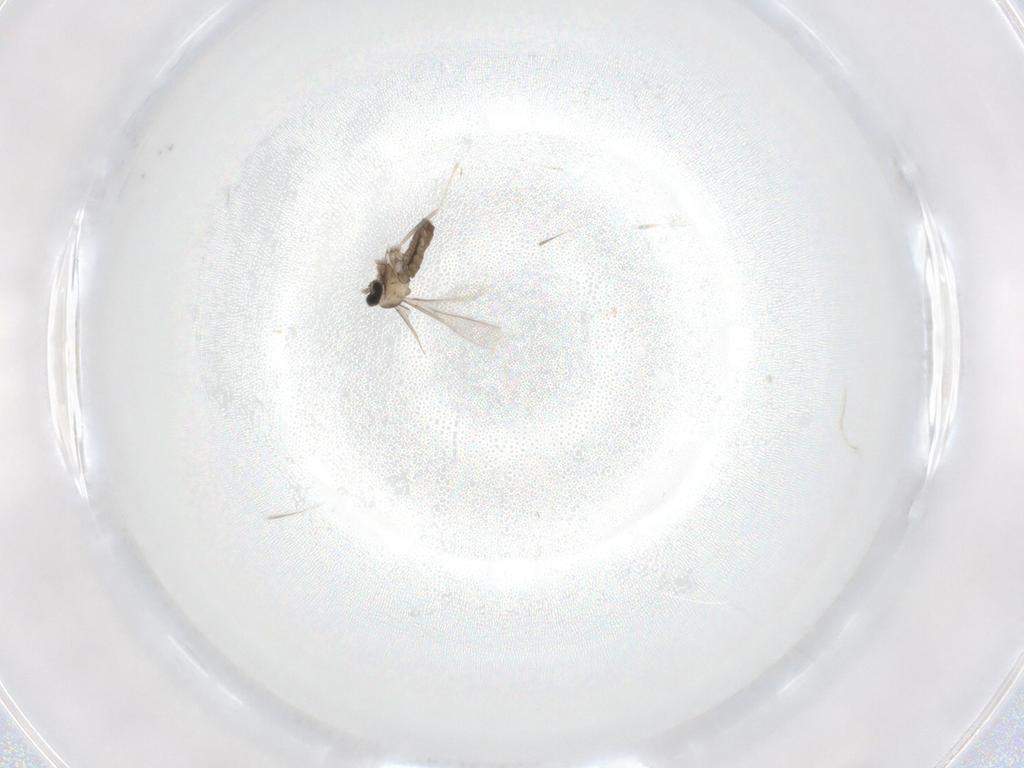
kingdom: Animalia
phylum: Arthropoda
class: Insecta
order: Diptera
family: Cecidomyiidae
